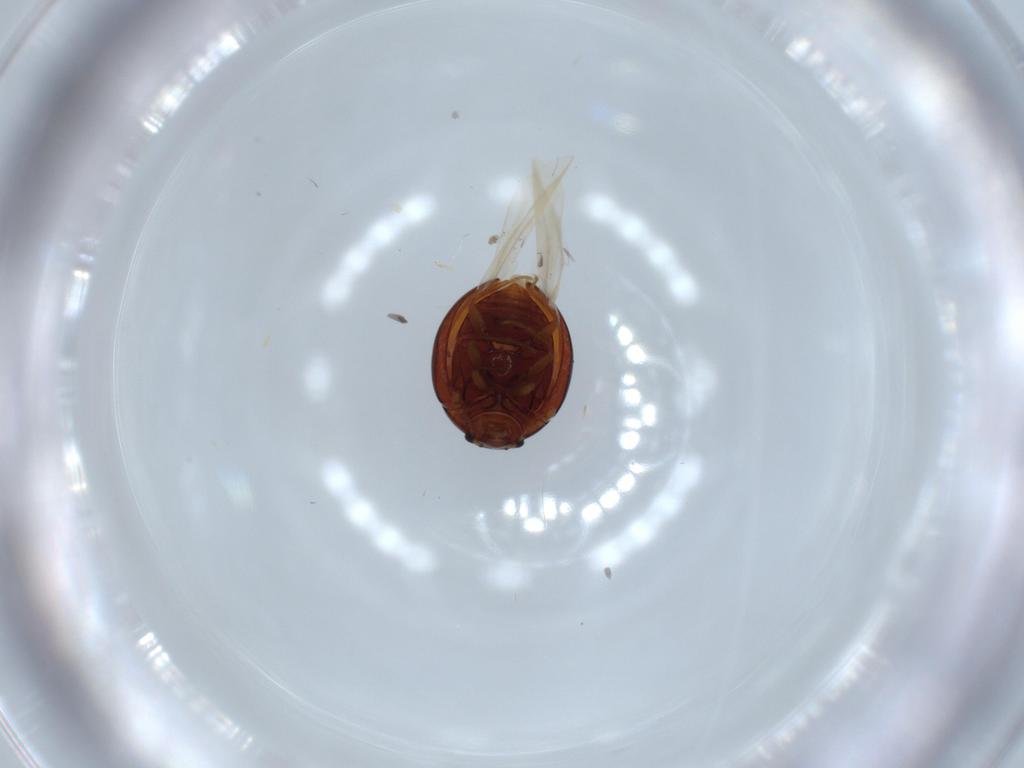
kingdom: Animalia
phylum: Arthropoda
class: Insecta
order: Coleoptera
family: Anamorphidae
